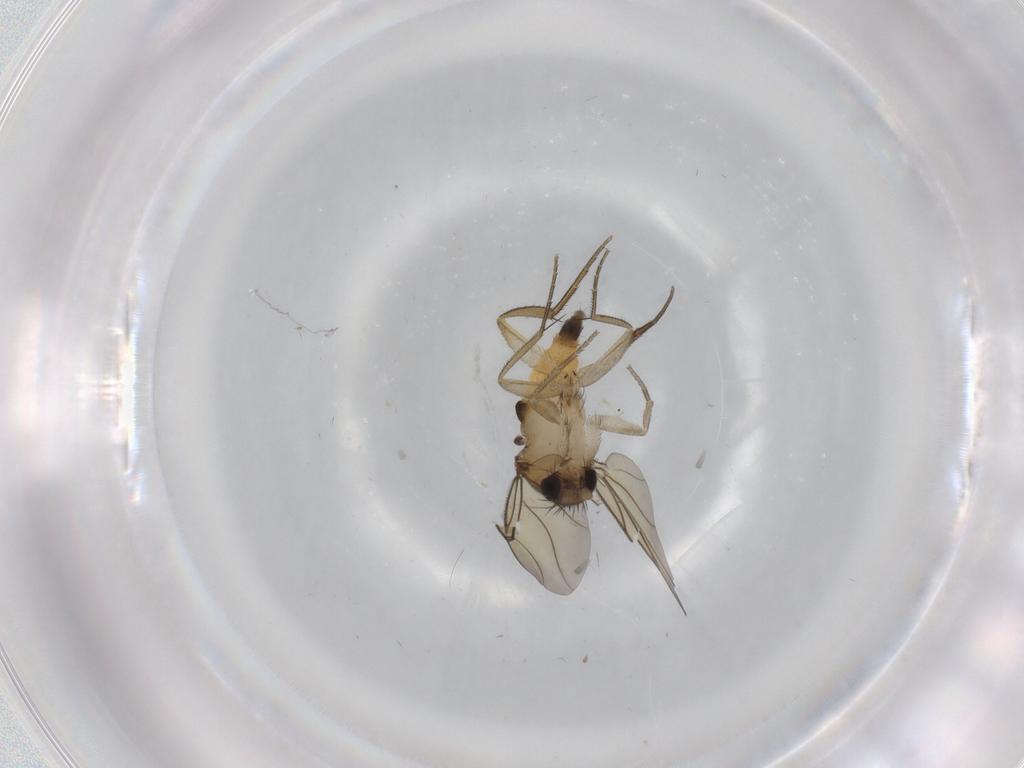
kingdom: Animalia
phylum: Arthropoda
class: Insecta
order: Diptera
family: Phoridae
